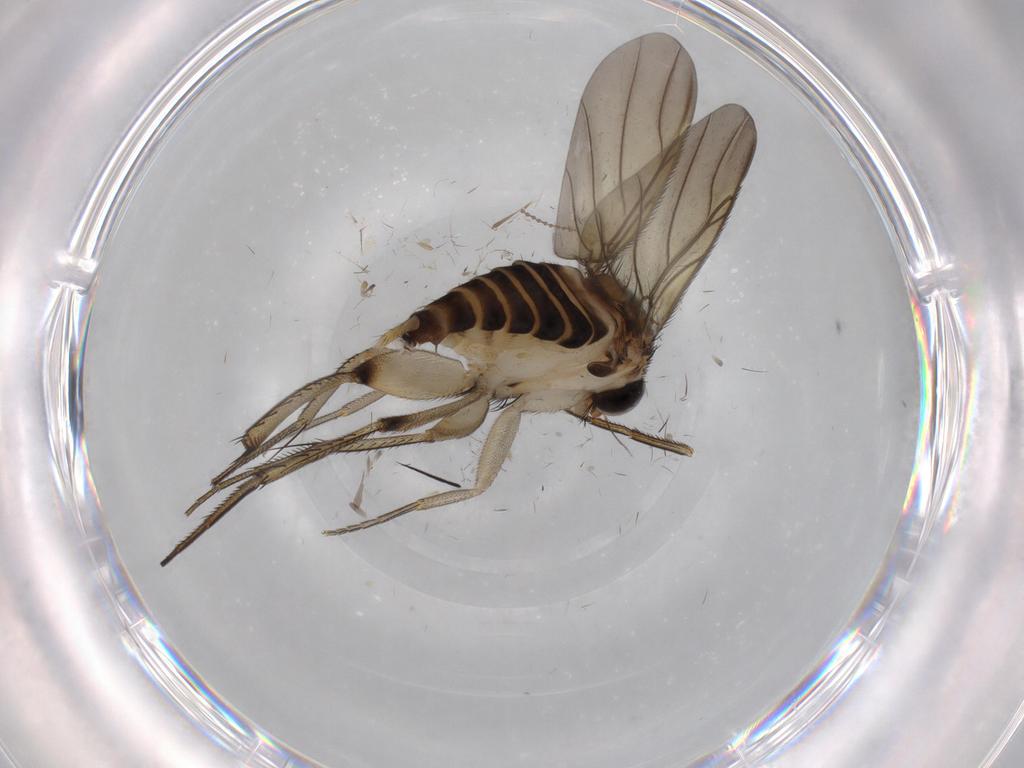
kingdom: Animalia
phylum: Arthropoda
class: Insecta
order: Diptera
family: Phoridae
